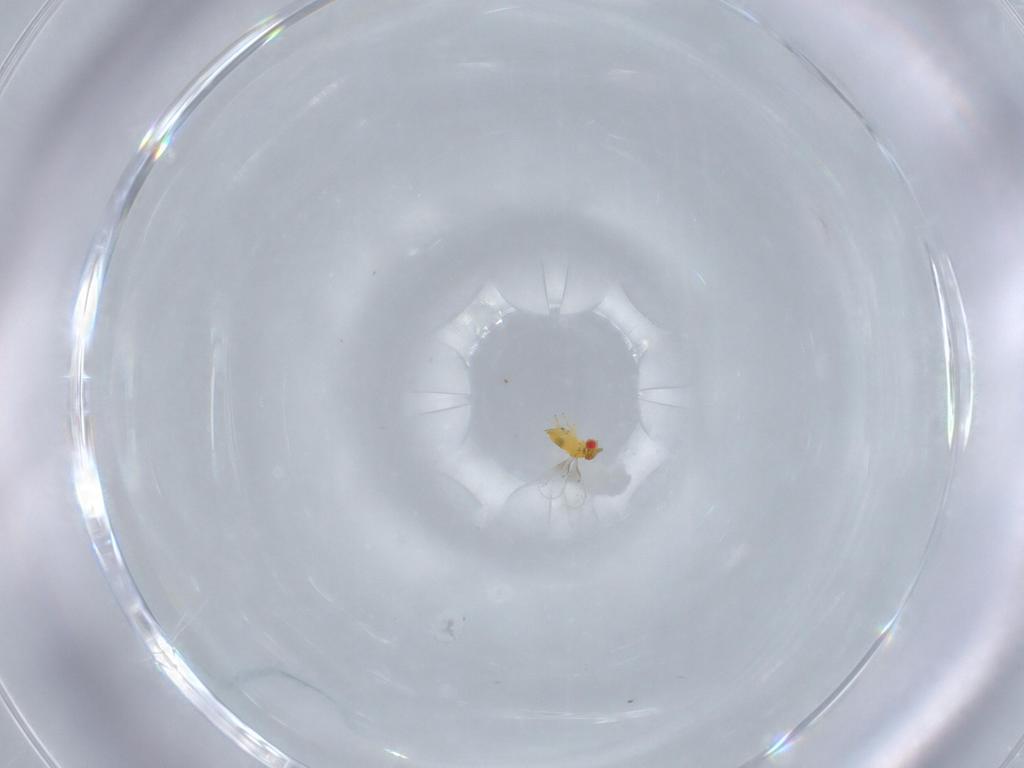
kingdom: Animalia
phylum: Arthropoda
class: Insecta
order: Hymenoptera
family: Trichogrammatidae
